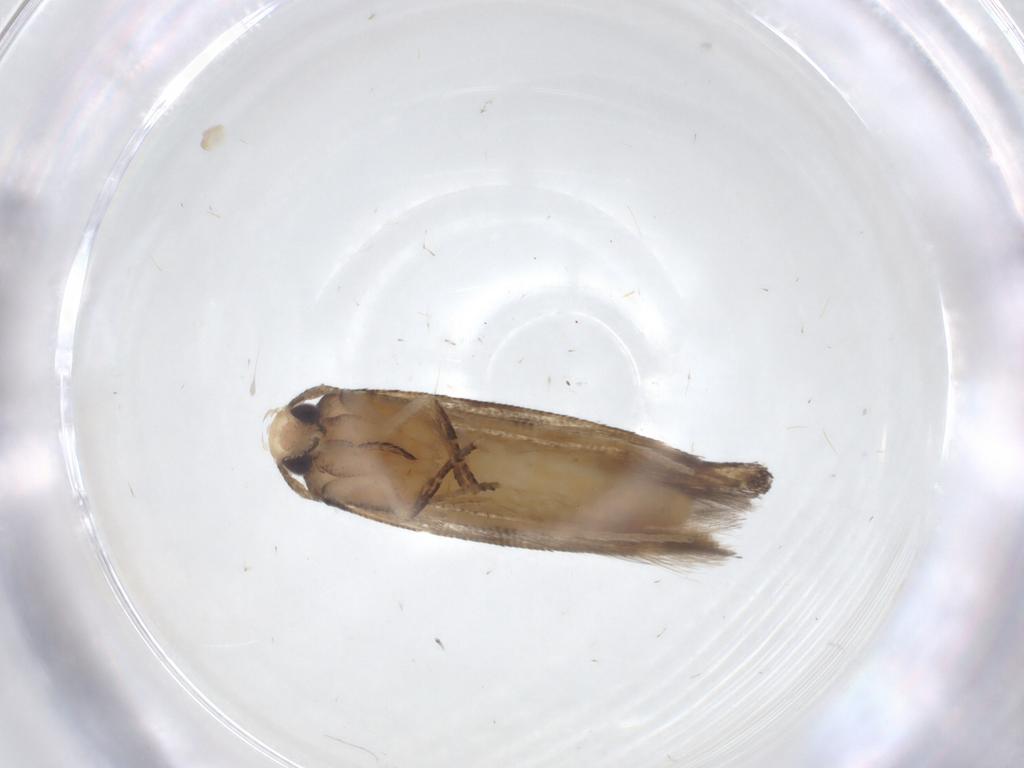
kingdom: Animalia
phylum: Arthropoda
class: Insecta
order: Lepidoptera
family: Cosmopterigidae
